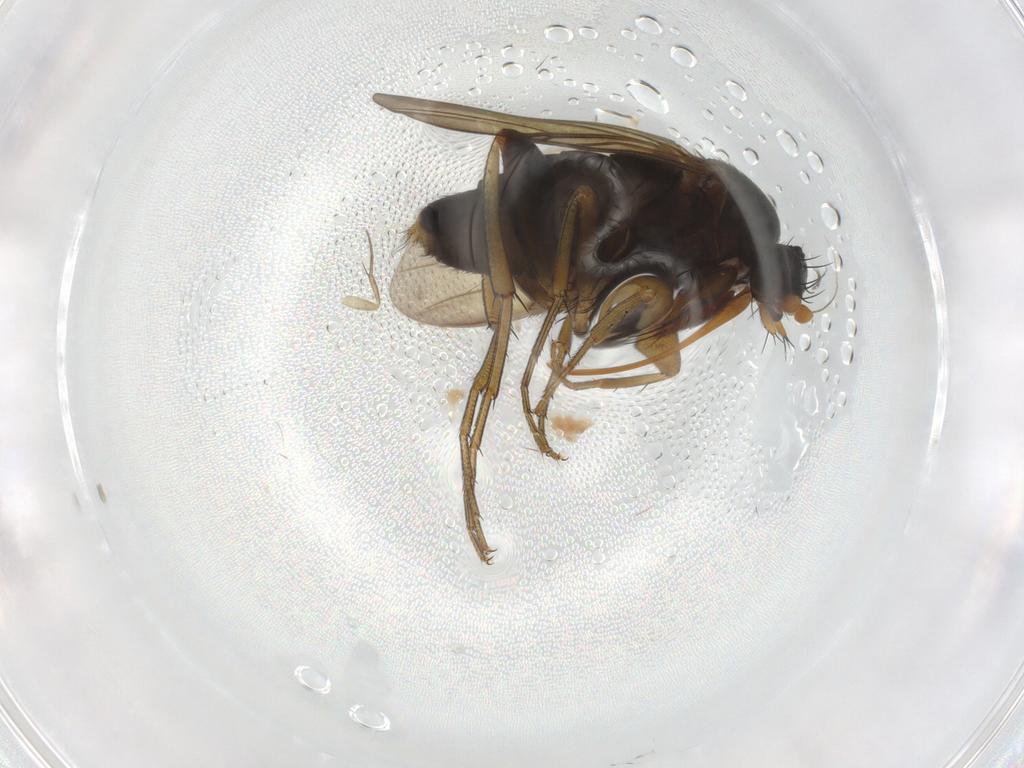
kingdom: Animalia
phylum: Arthropoda
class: Insecta
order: Diptera
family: Phoridae
